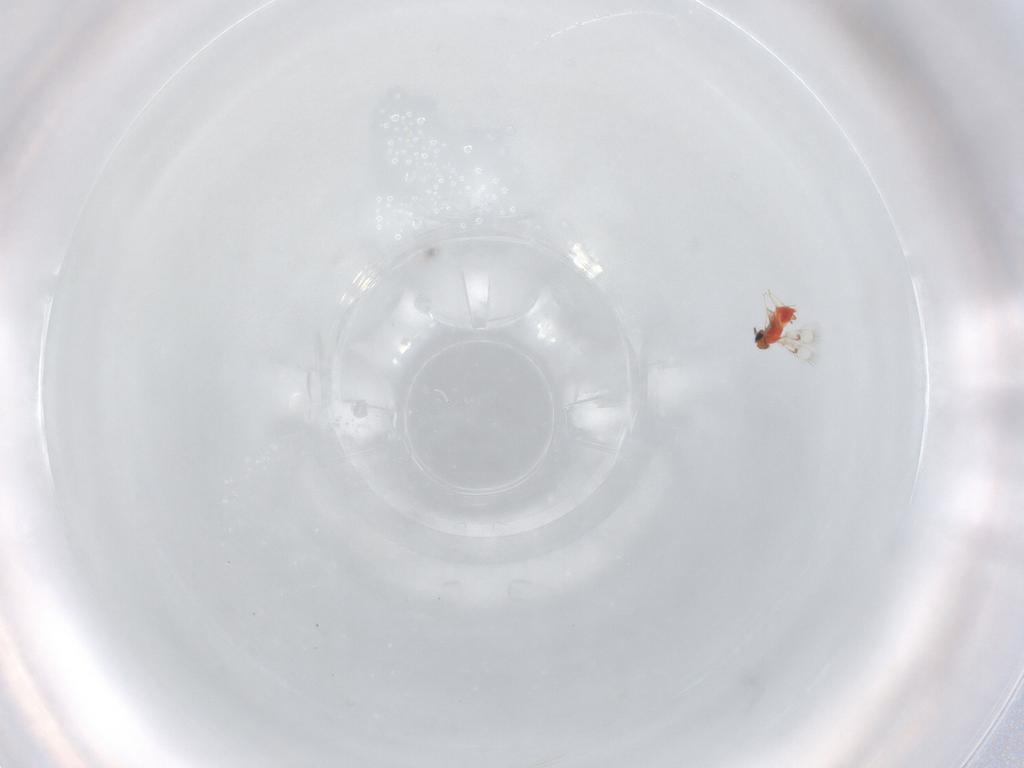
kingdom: Animalia
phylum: Arthropoda
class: Insecta
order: Hymenoptera
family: Trichogrammatidae
